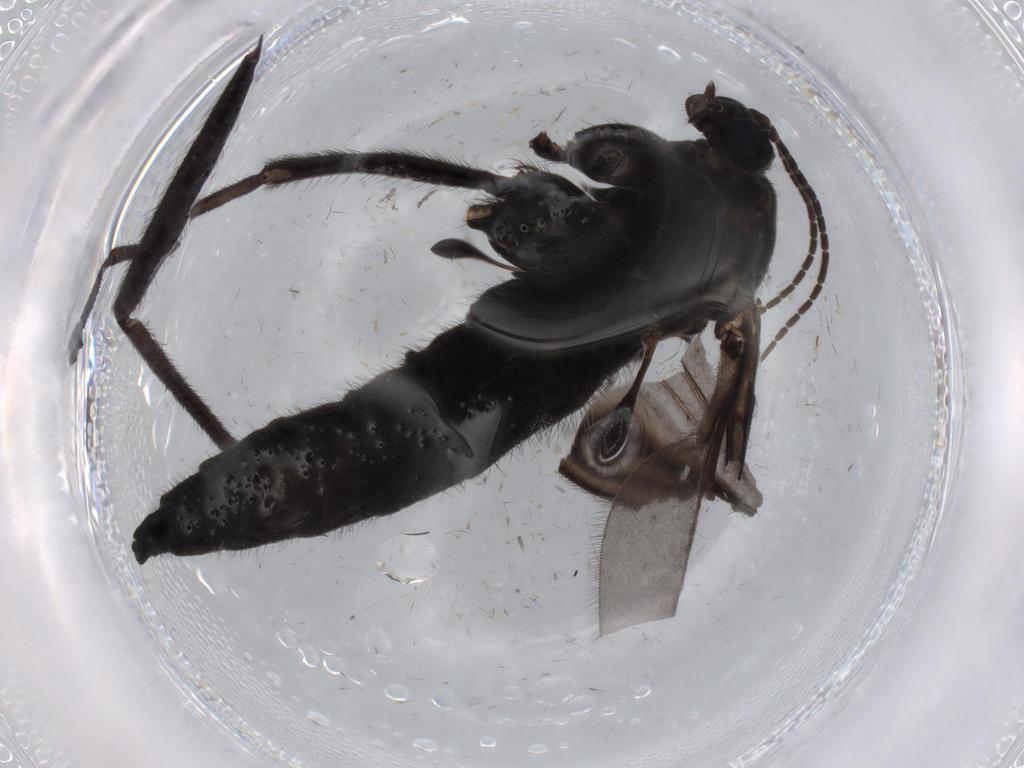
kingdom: Animalia
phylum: Arthropoda
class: Insecta
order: Diptera
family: Sciaridae
